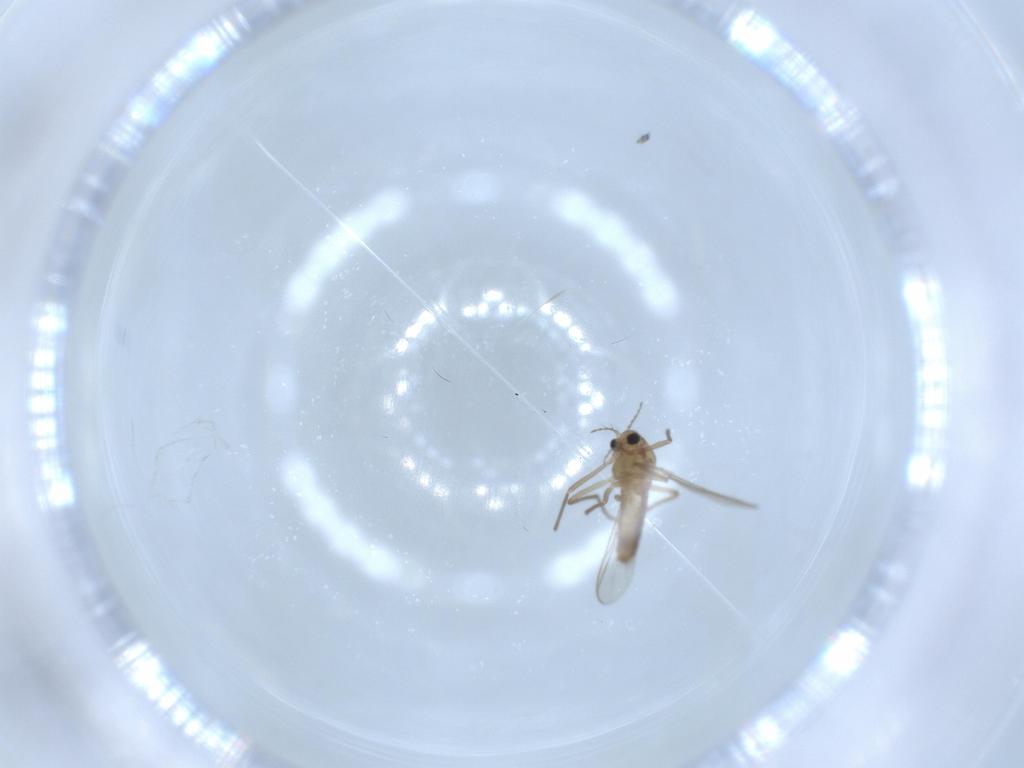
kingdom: Animalia
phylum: Arthropoda
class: Insecta
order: Diptera
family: Chironomidae
